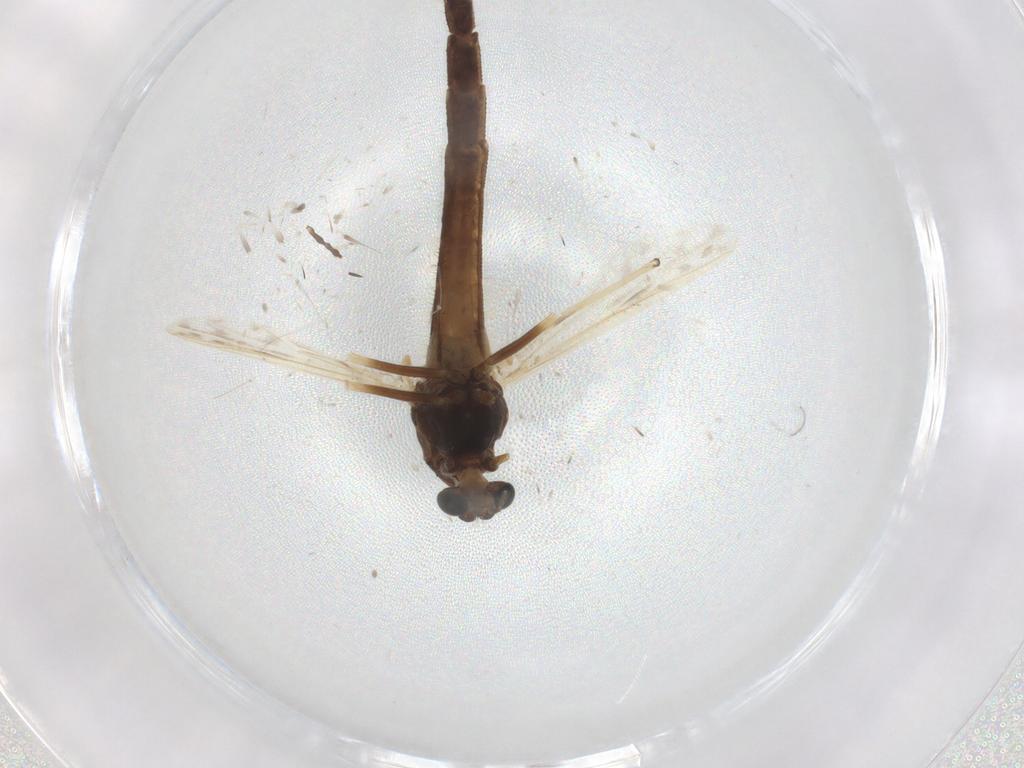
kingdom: Animalia
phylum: Arthropoda
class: Insecta
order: Diptera
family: Chironomidae
